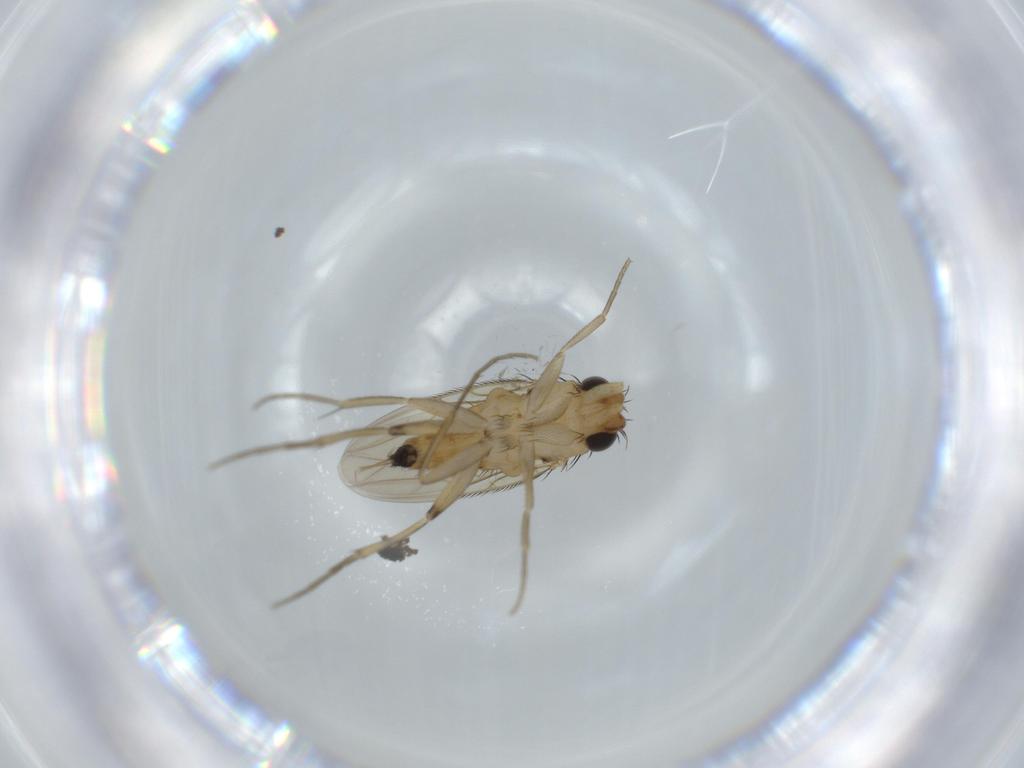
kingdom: Animalia
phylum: Arthropoda
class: Insecta
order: Diptera
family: Phoridae
